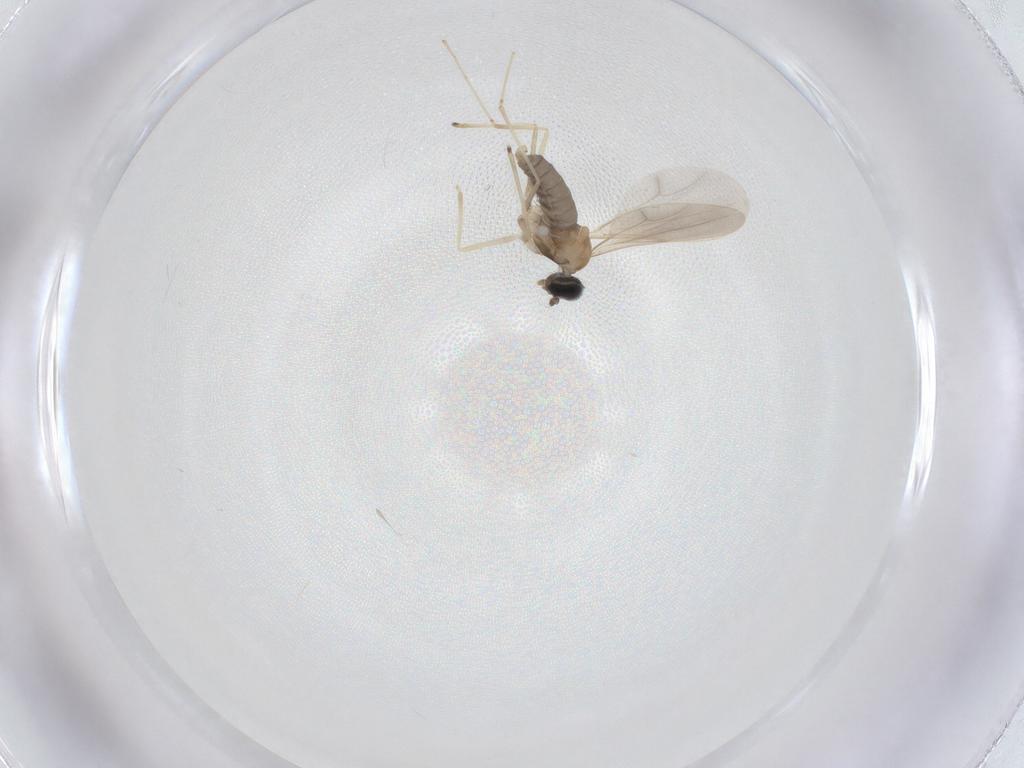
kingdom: Animalia
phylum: Arthropoda
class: Insecta
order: Diptera
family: Cecidomyiidae
